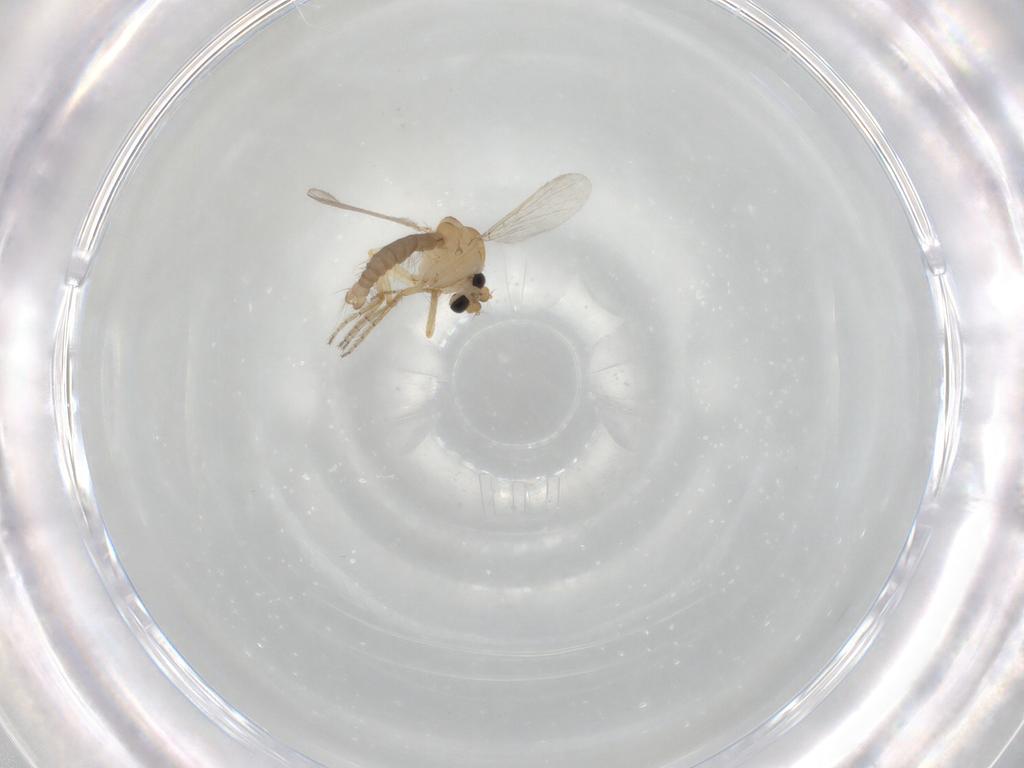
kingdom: Animalia
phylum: Arthropoda
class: Insecta
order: Diptera
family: Ceratopogonidae
